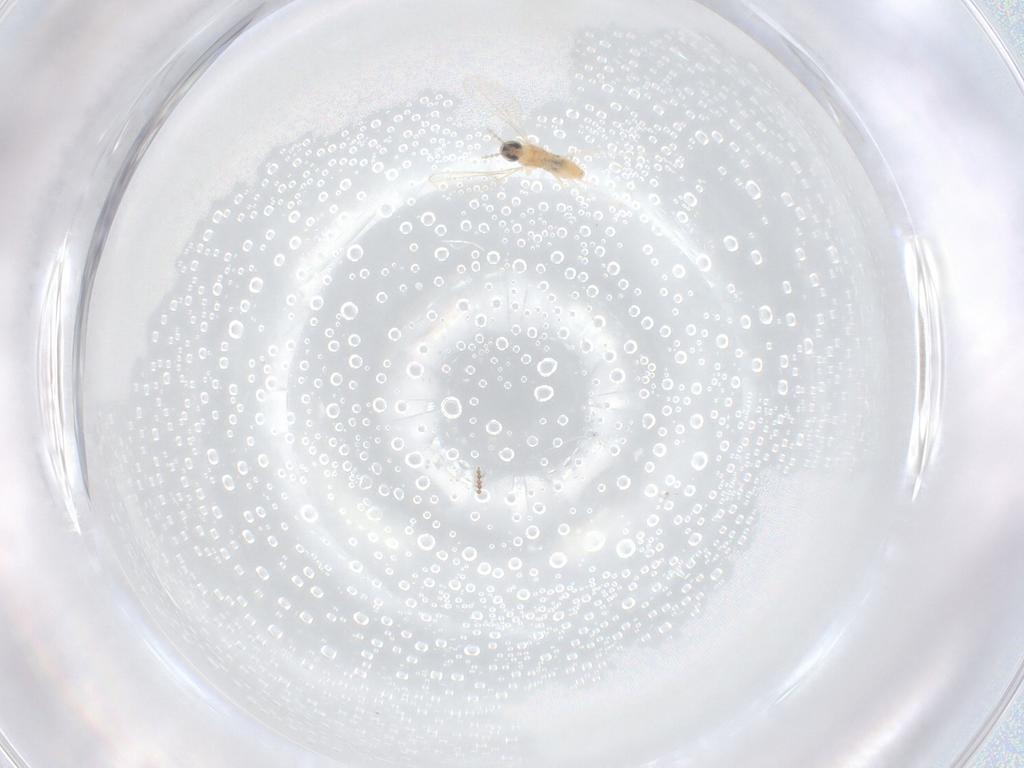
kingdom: Animalia
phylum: Arthropoda
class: Insecta
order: Diptera
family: Cecidomyiidae
